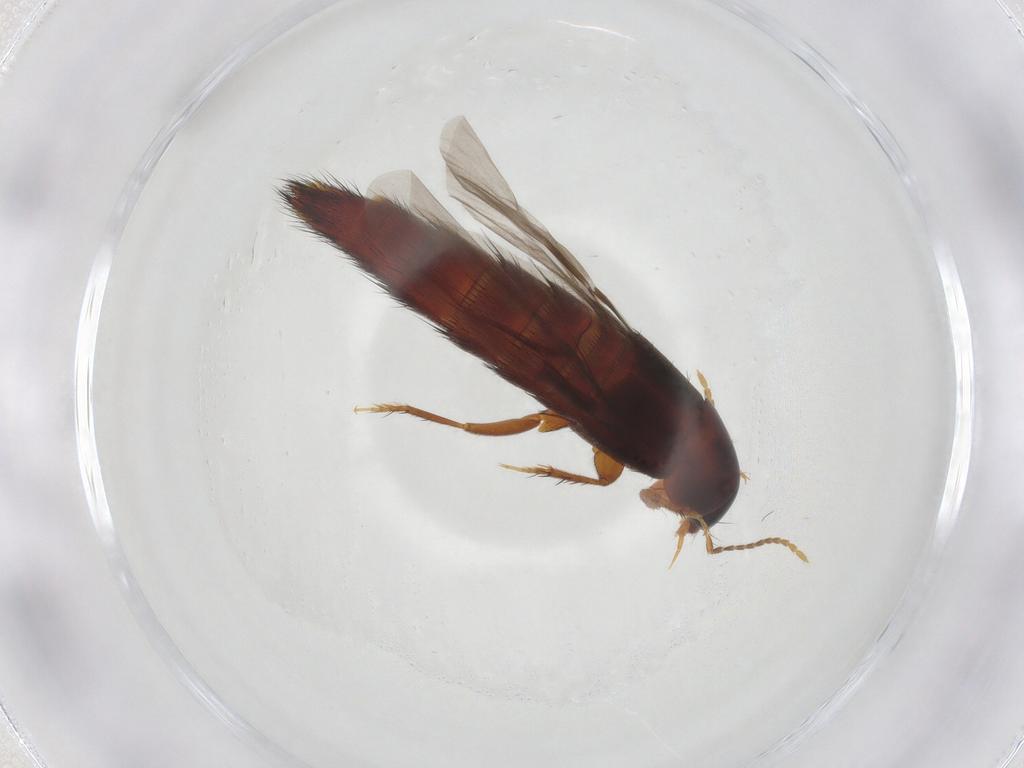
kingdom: Animalia
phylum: Arthropoda
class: Insecta
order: Coleoptera
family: Staphylinidae
